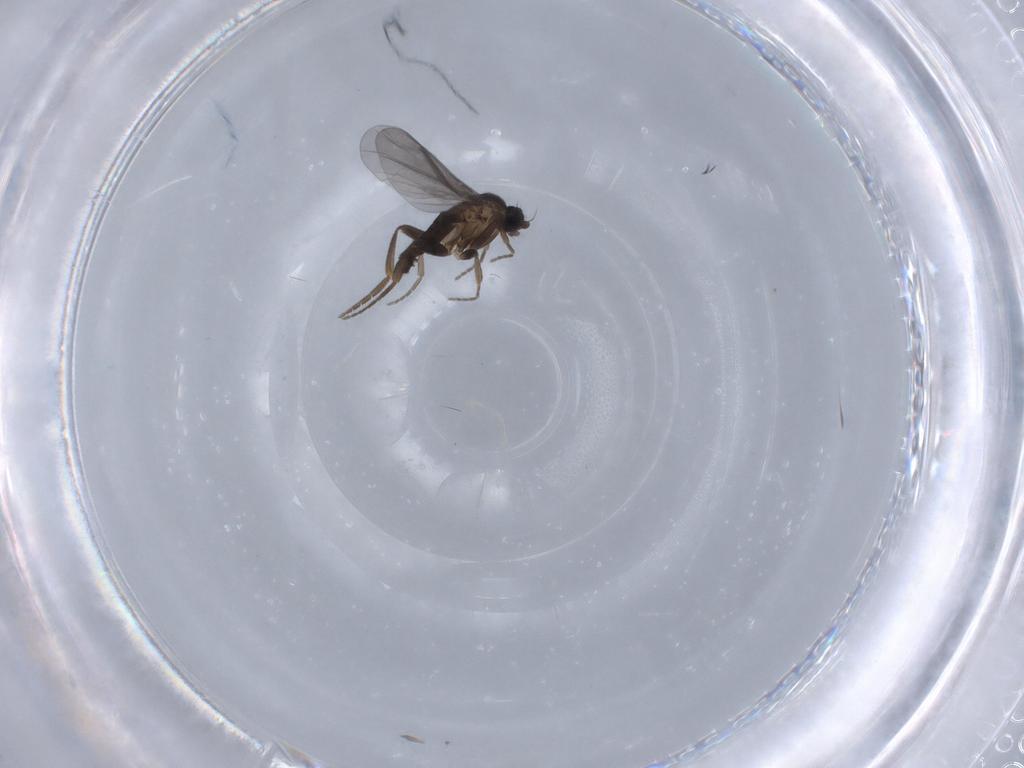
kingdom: Animalia
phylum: Arthropoda
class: Insecta
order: Diptera
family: Phoridae
